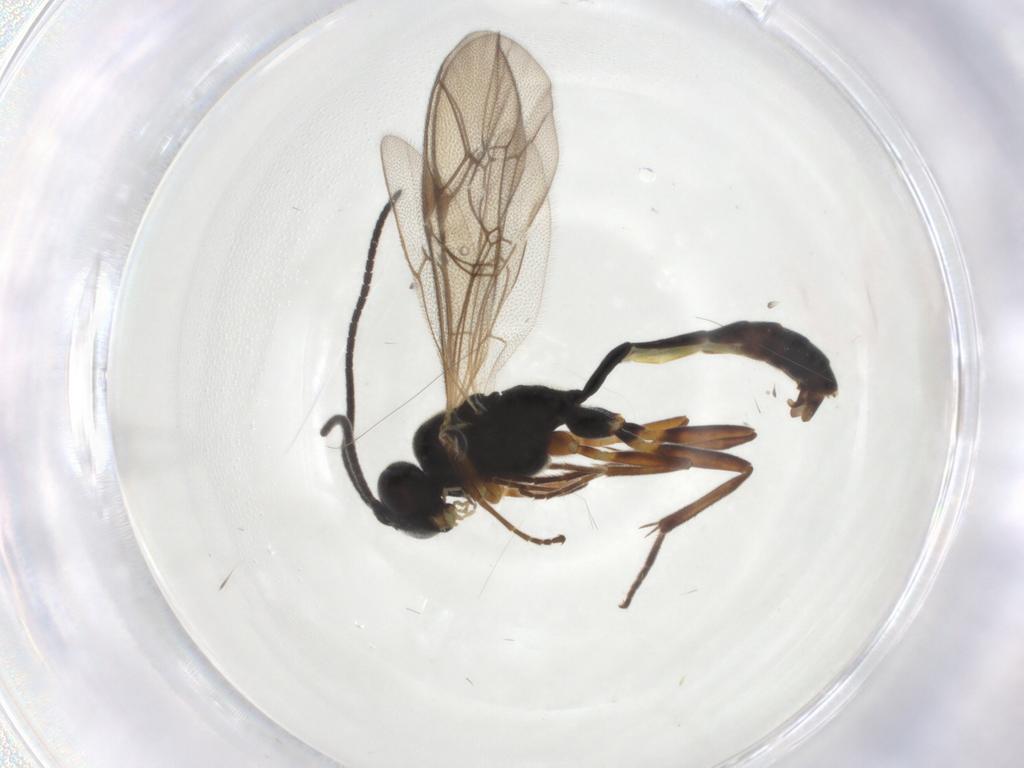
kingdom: Animalia
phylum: Arthropoda
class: Insecta
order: Hymenoptera
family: Ichneumonidae
